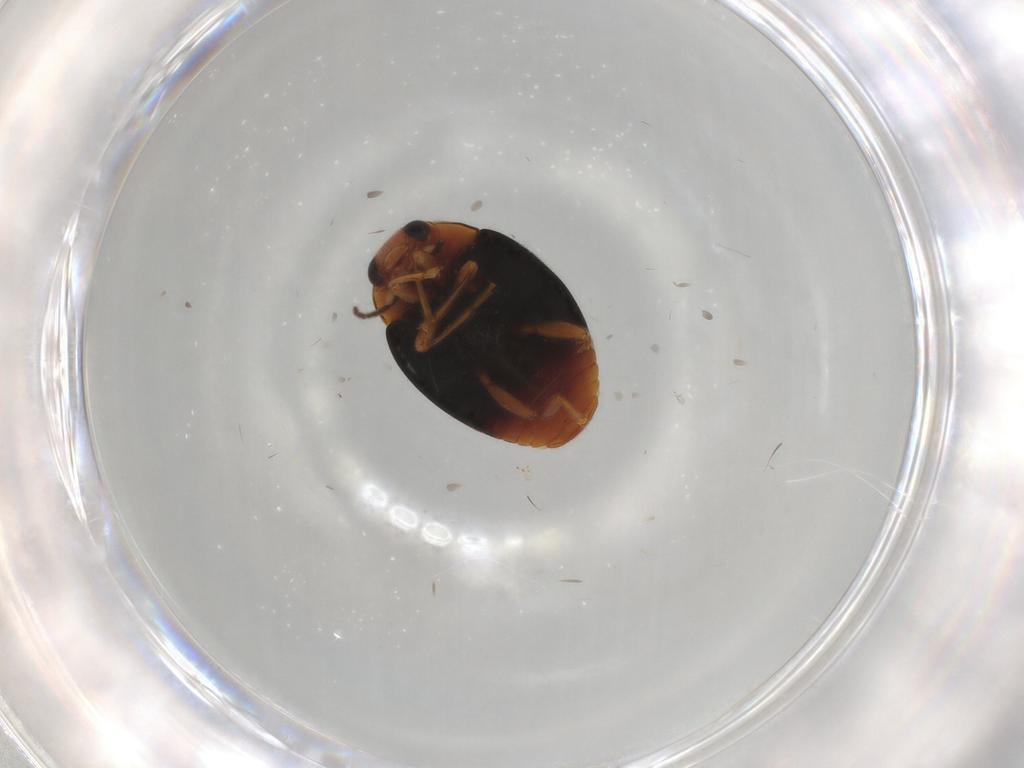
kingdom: Animalia
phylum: Arthropoda
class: Insecta
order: Coleoptera
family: Coccinellidae
